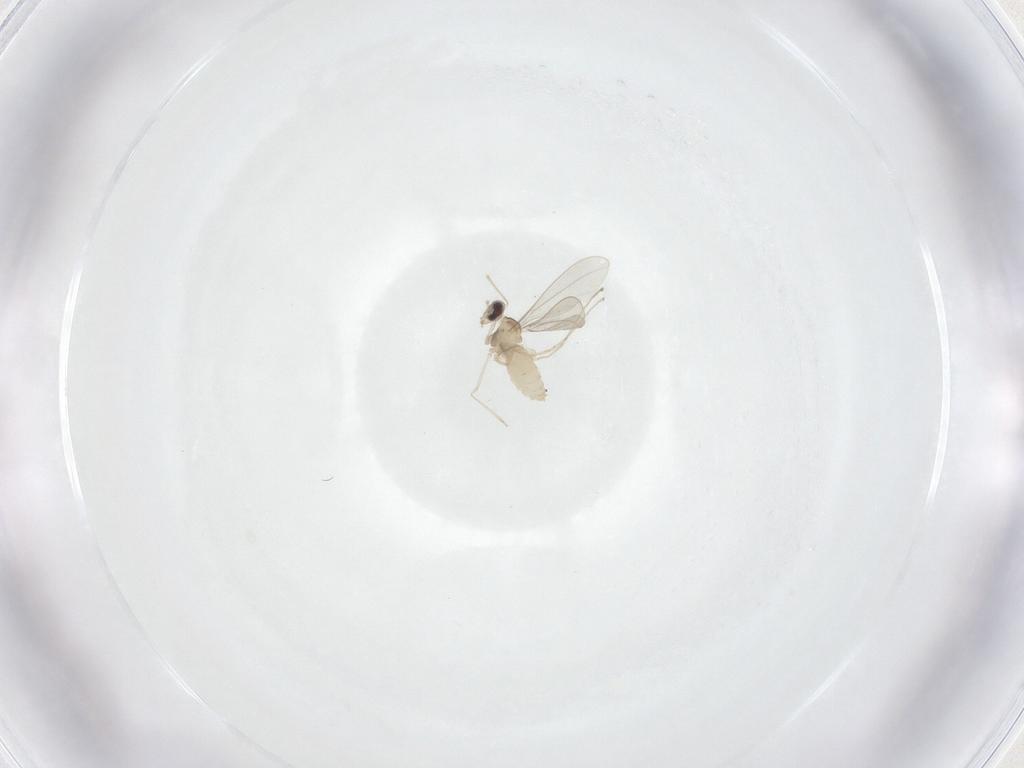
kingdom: Animalia
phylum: Arthropoda
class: Insecta
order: Diptera
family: Cecidomyiidae
